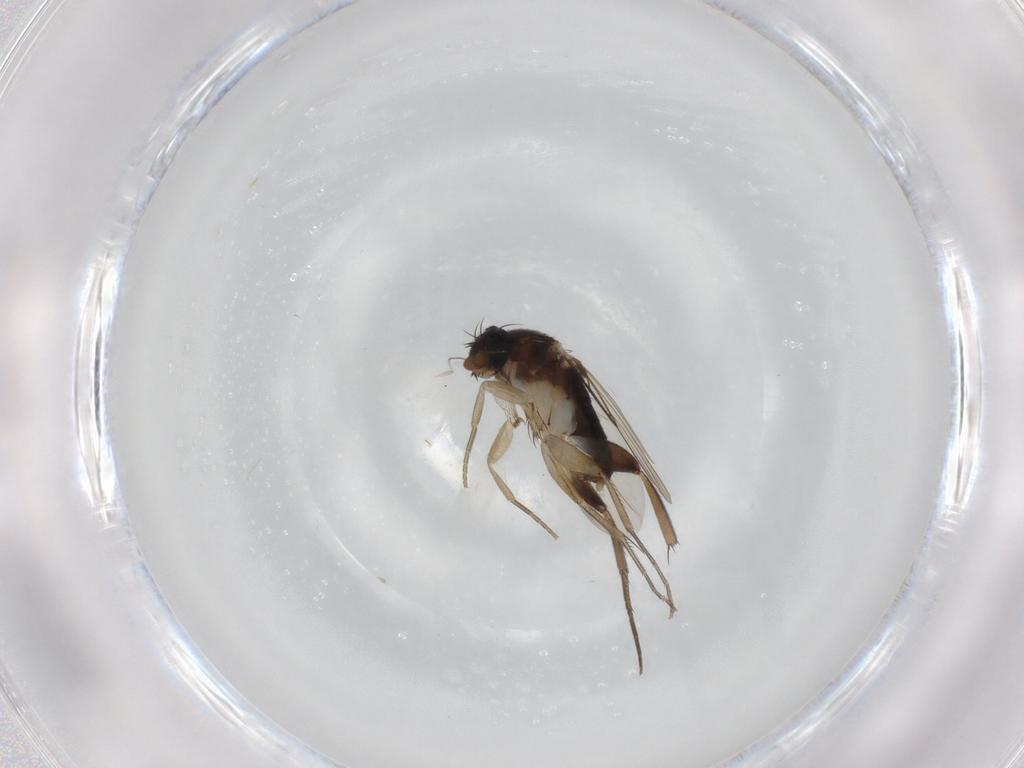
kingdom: Animalia
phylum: Arthropoda
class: Insecta
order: Diptera
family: Phoridae
